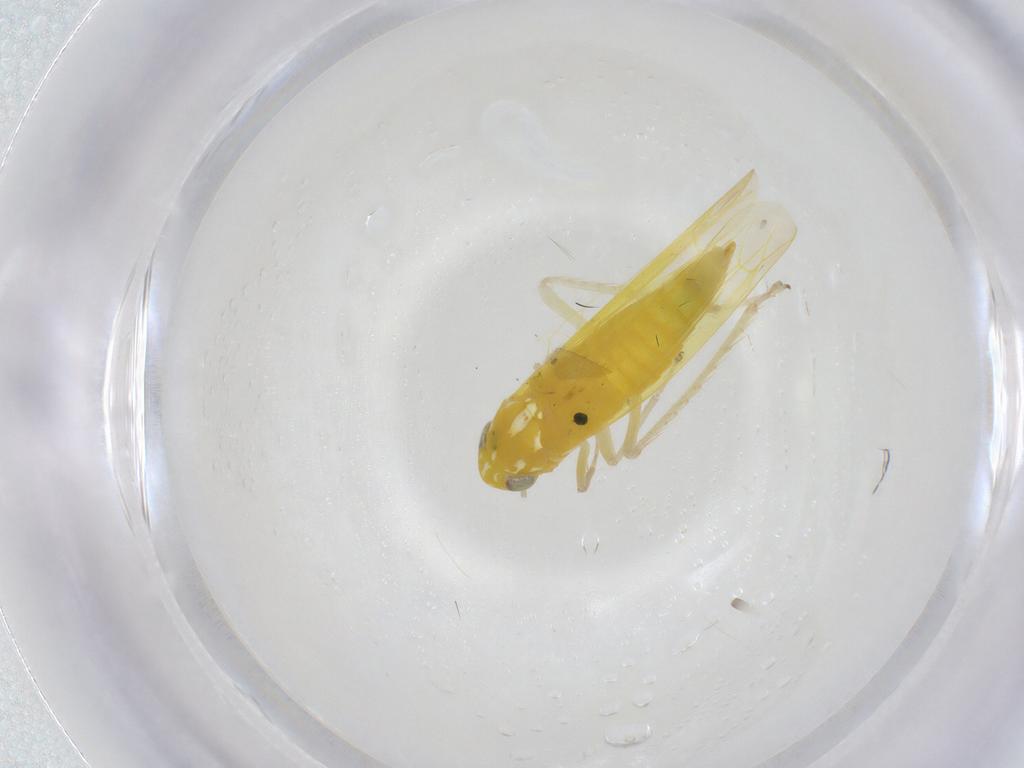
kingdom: Animalia
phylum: Arthropoda
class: Insecta
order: Hemiptera
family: Cicadellidae
